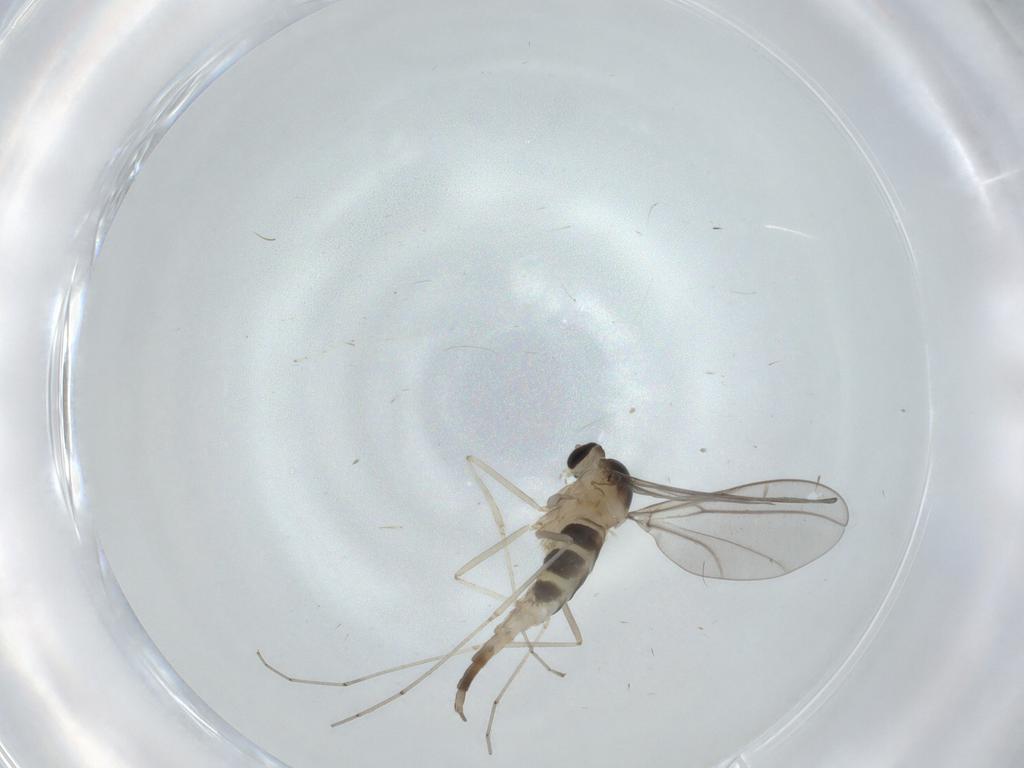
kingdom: Animalia
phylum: Arthropoda
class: Insecta
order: Diptera
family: Cecidomyiidae
